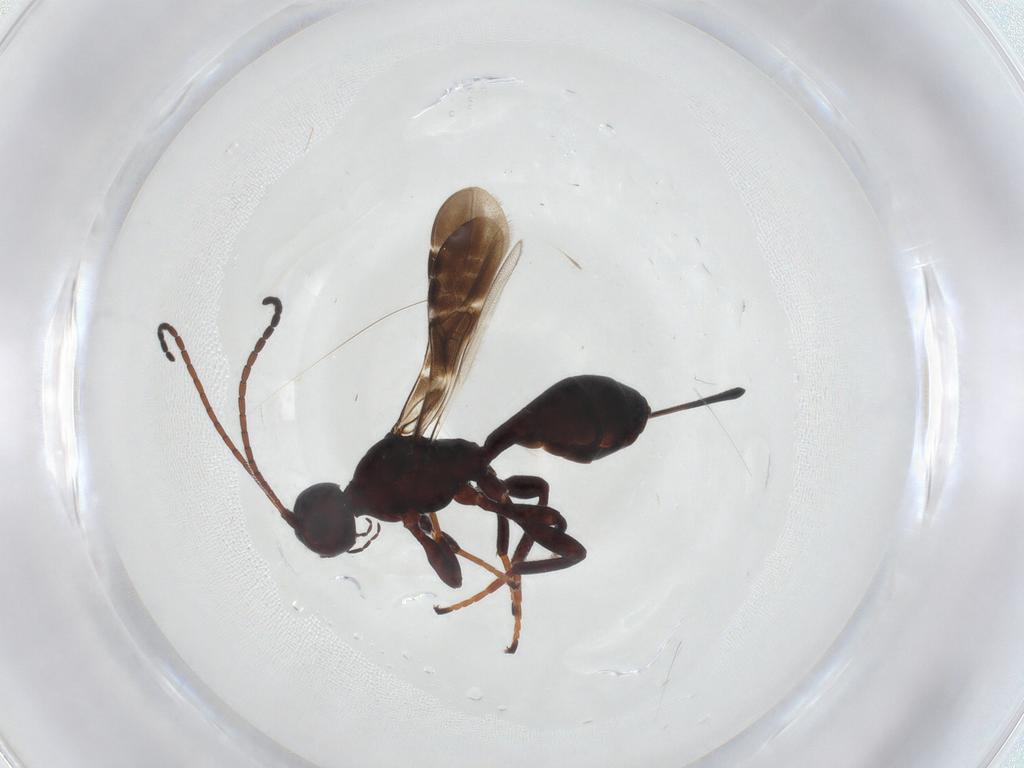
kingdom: Animalia
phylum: Arthropoda
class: Insecta
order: Hymenoptera
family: Braconidae
